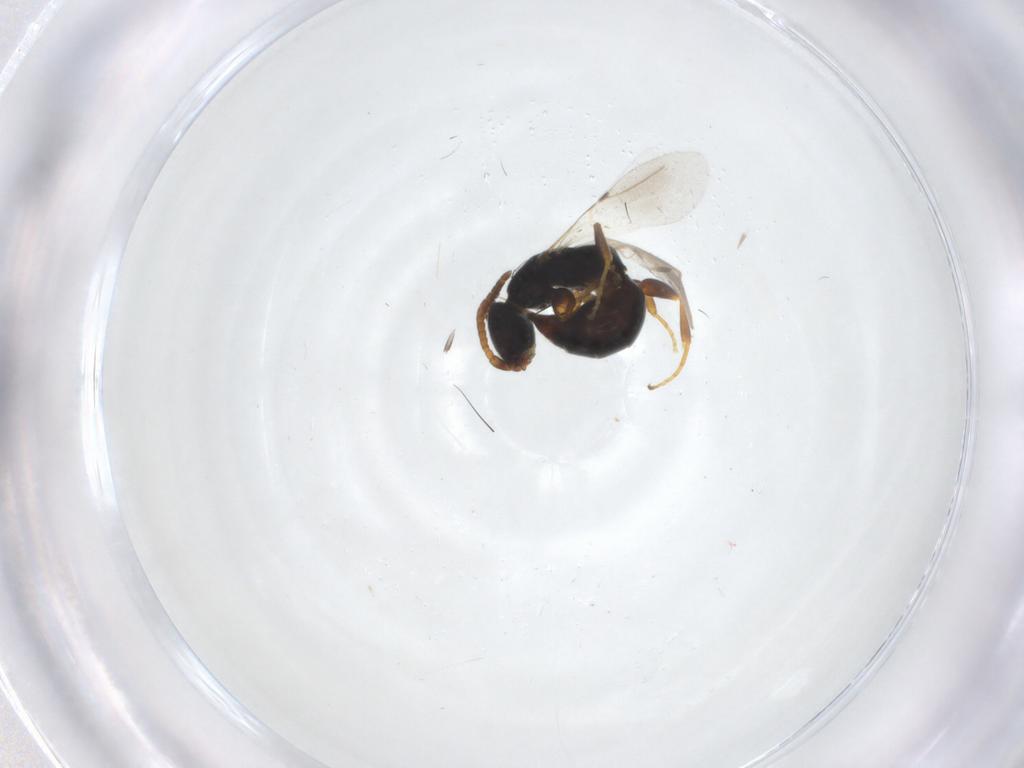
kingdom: Animalia
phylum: Arthropoda
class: Insecta
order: Hymenoptera
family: Bethylidae
